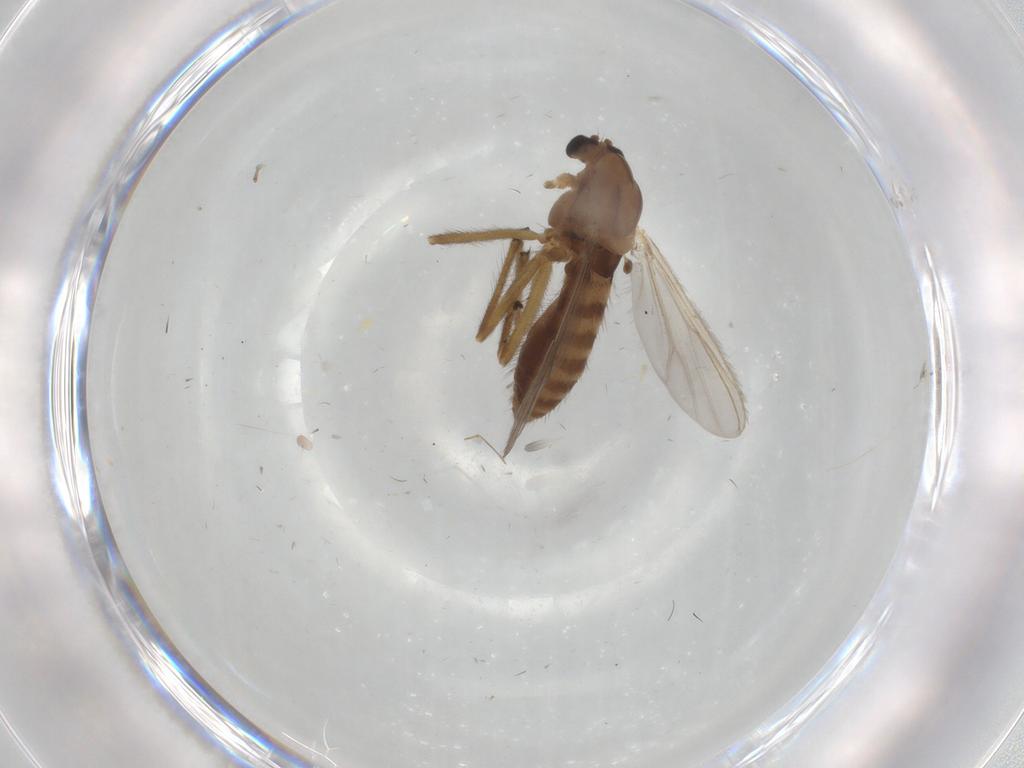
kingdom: Animalia
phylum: Arthropoda
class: Insecta
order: Diptera
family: Chironomidae
